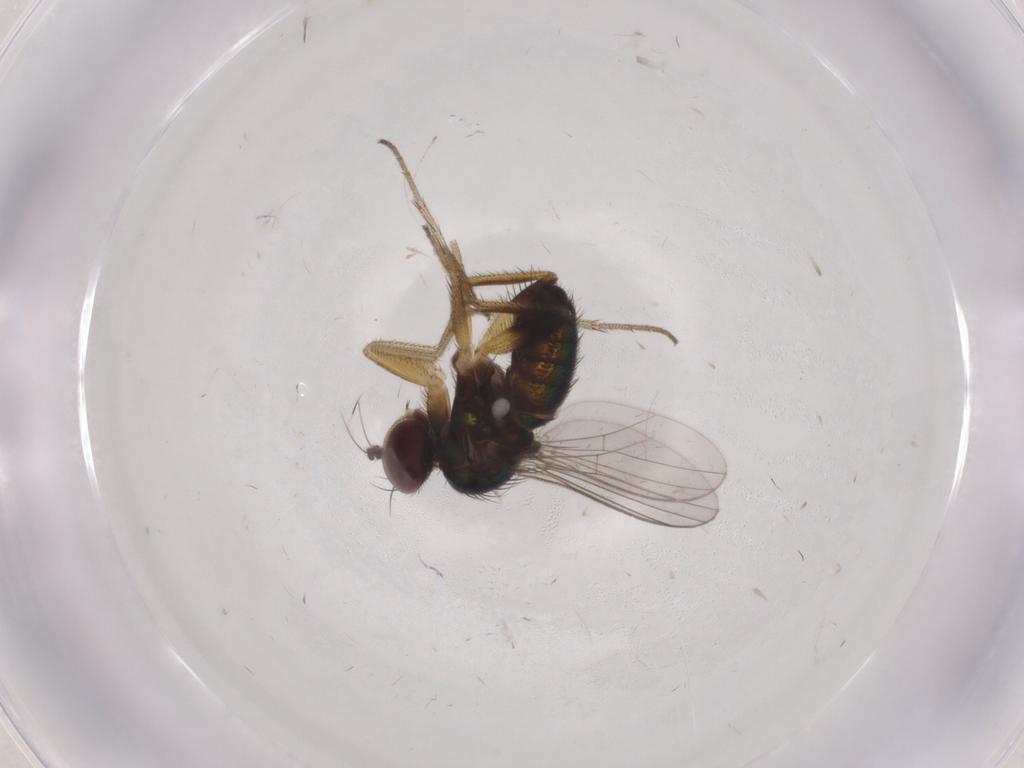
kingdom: Animalia
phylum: Arthropoda
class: Insecta
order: Diptera
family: Dolichopodidae
